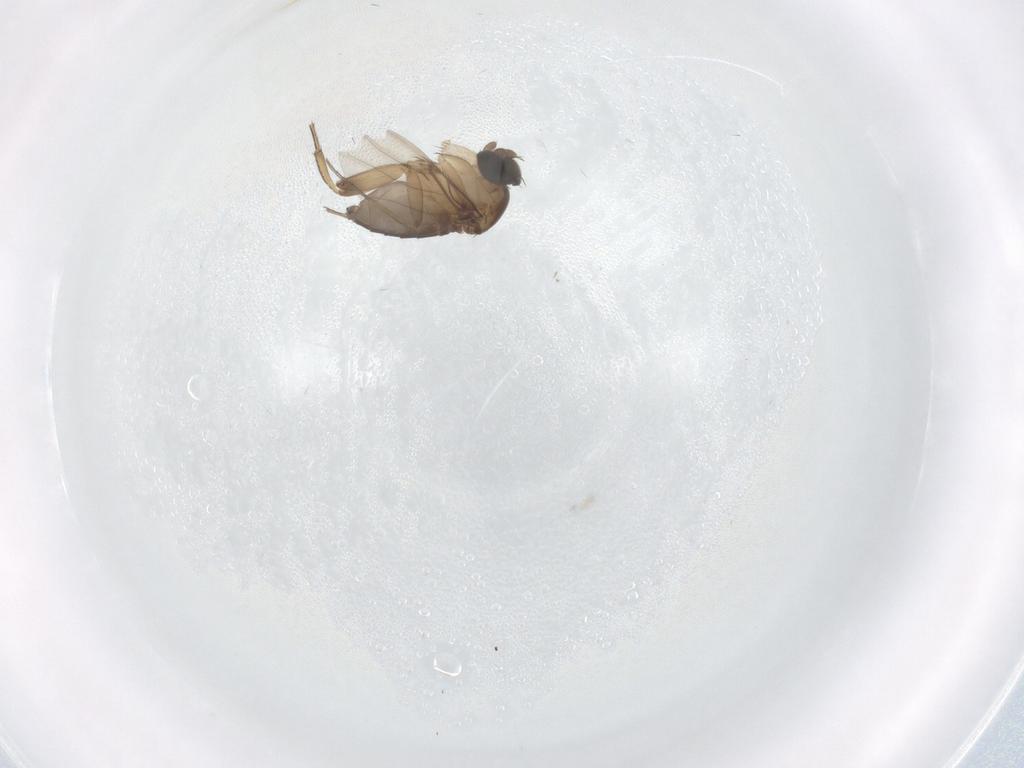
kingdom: Animalia
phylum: Arthropoda
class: Insecta
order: Diptera
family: Phoridae
